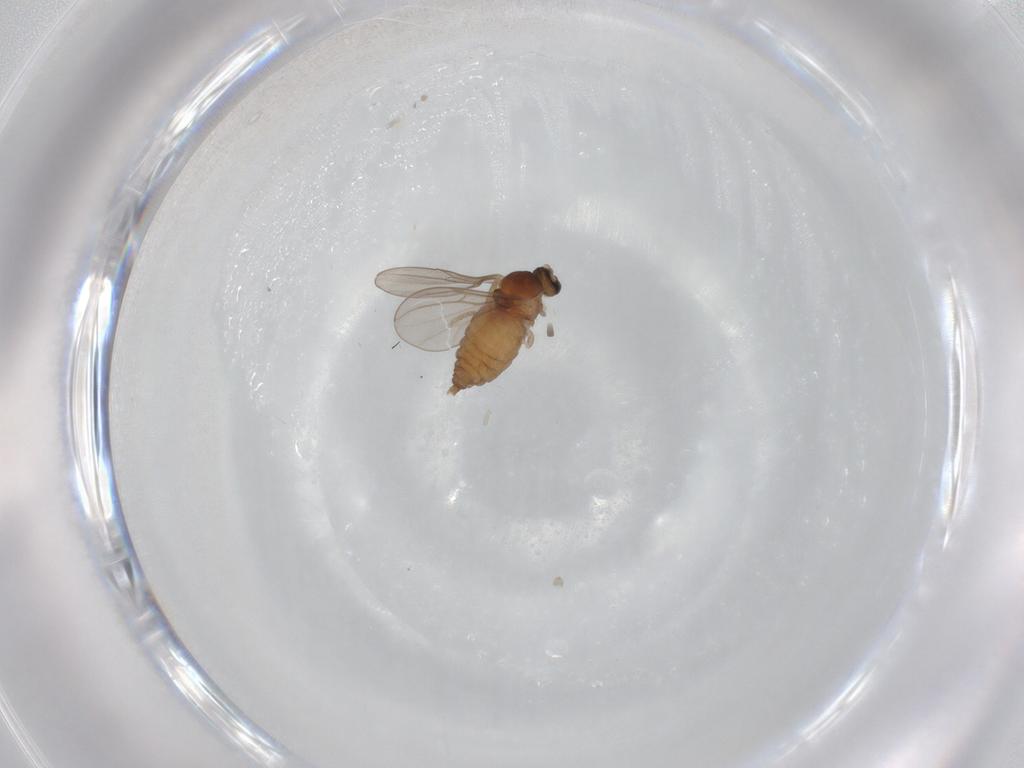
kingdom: Animalia
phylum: Arthropoda
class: Insecta
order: Diptera
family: Cecidomyiidae
